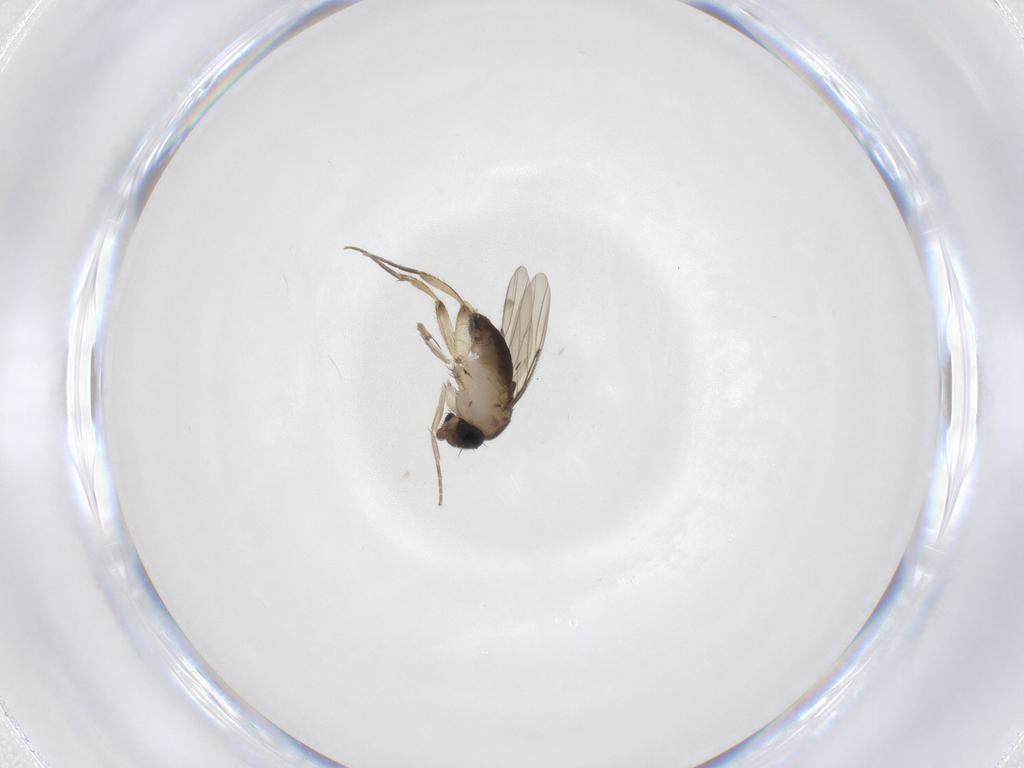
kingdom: Animalia
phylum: Arthropoda
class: Insecta
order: Diptera
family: Phoridae
